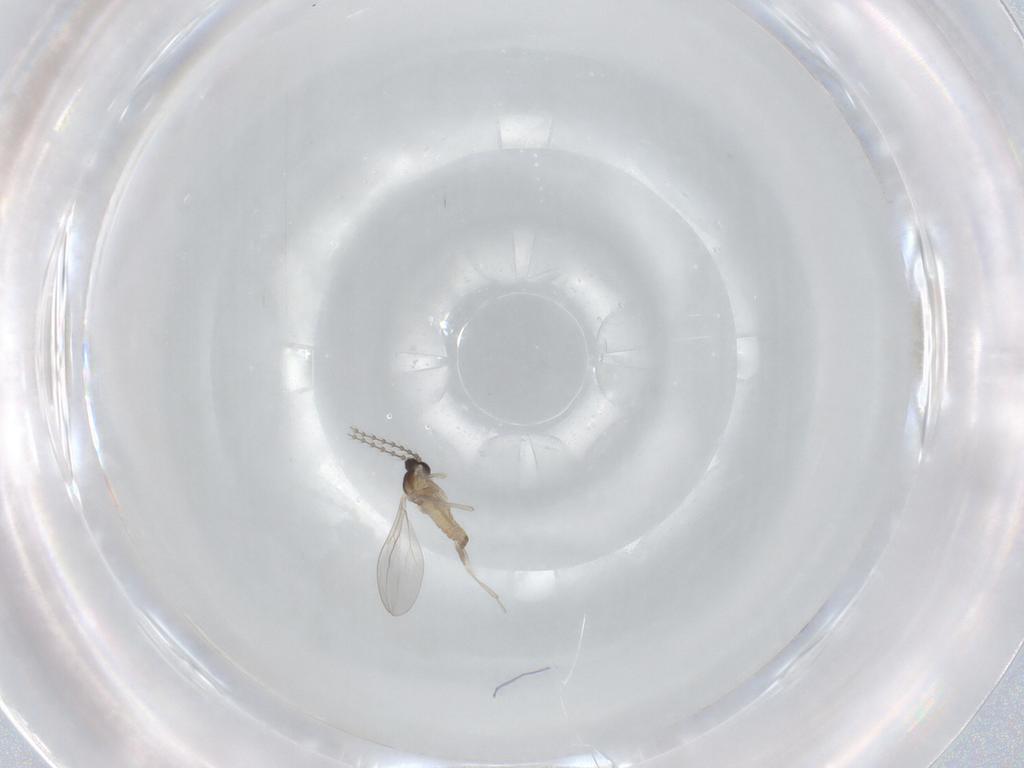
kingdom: Animalia
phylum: Arthropoda
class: Insecta
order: Diptera
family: Cecidomyiidae
